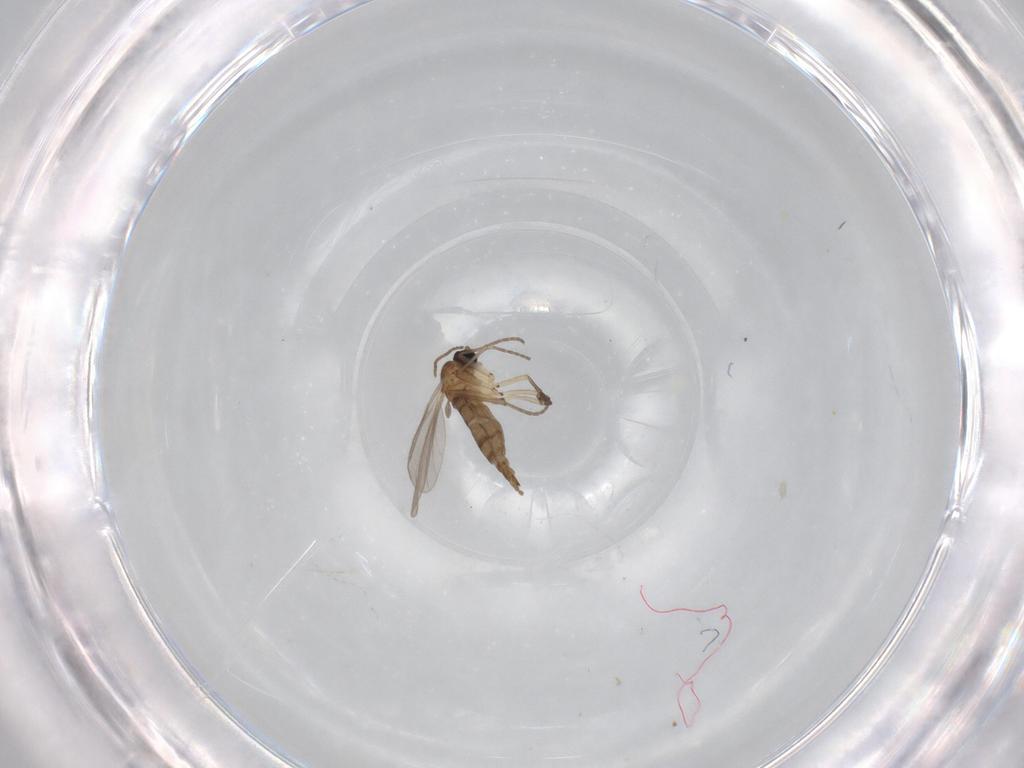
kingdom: Animalia
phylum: Arthropoda
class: Insecta
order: Diptera
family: Sciaridae
